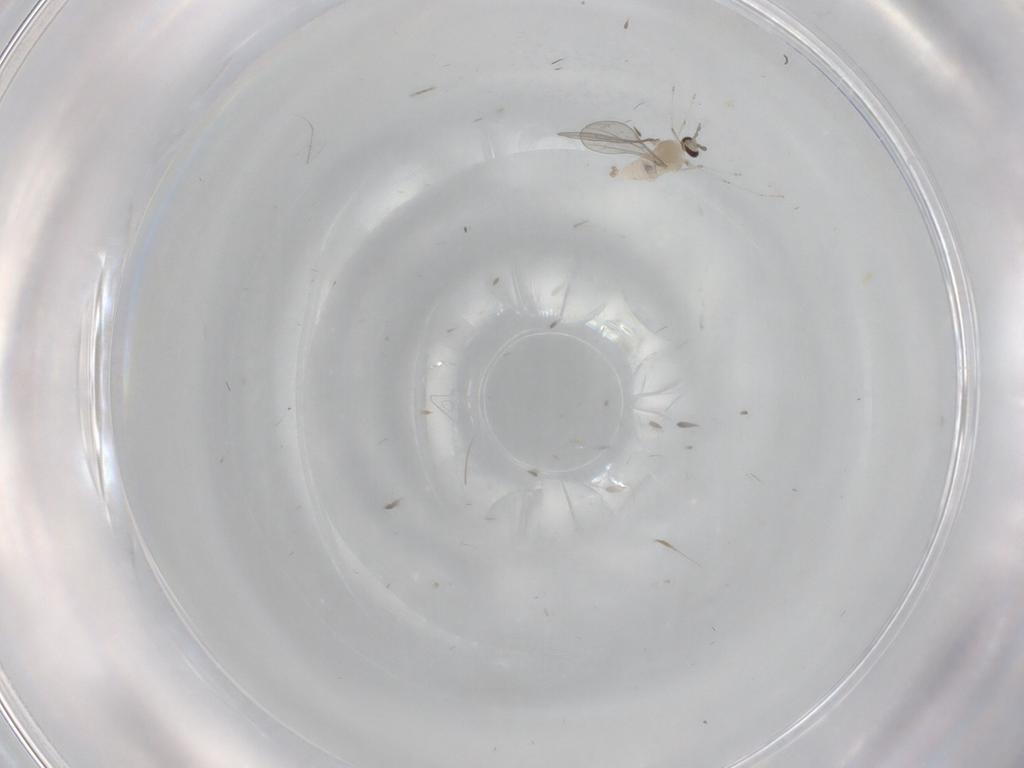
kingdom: Animalia
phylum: Arthropoda
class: Insecta
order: Diptera
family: Cecidomyiidae
